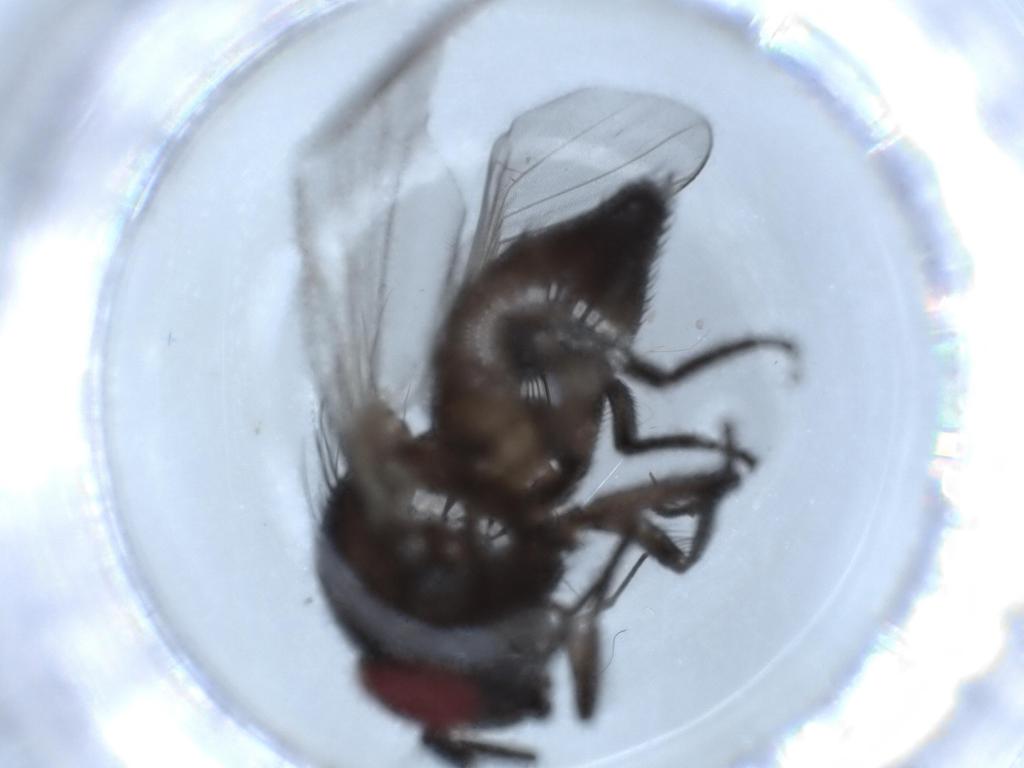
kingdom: Animalia
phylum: Arthropoda
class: Insecta
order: Diptera
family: Lonchaeidae
